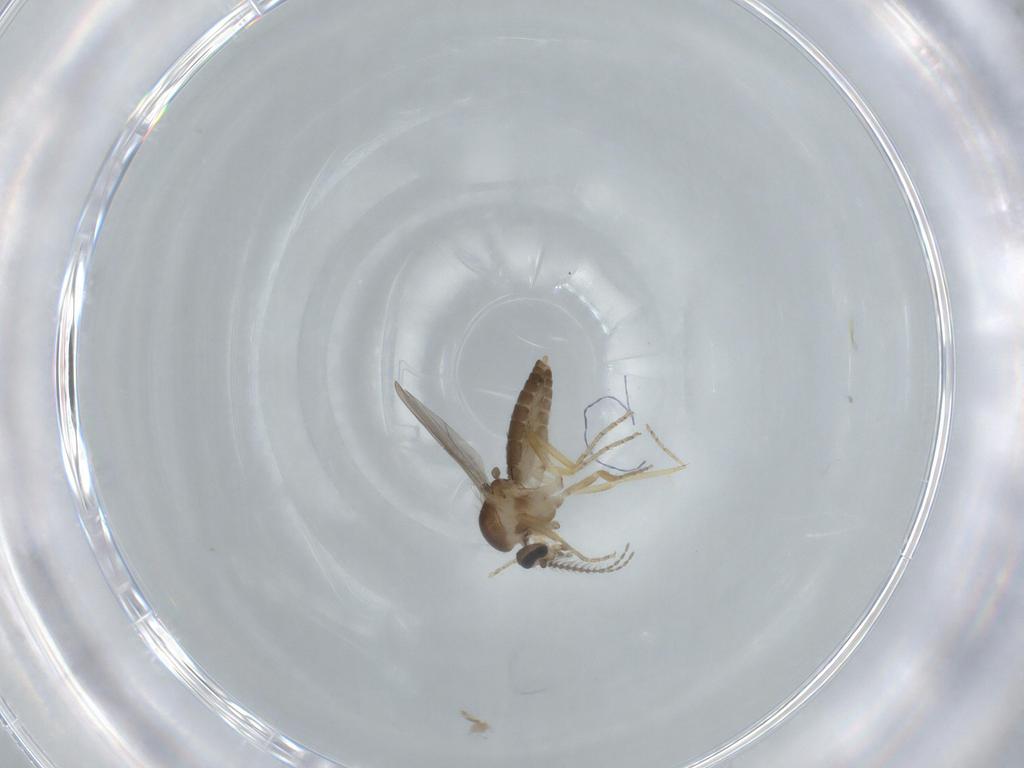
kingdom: Animalia
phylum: Arthropoda
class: Insecta
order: Diptera
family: Ceratopogonidae
